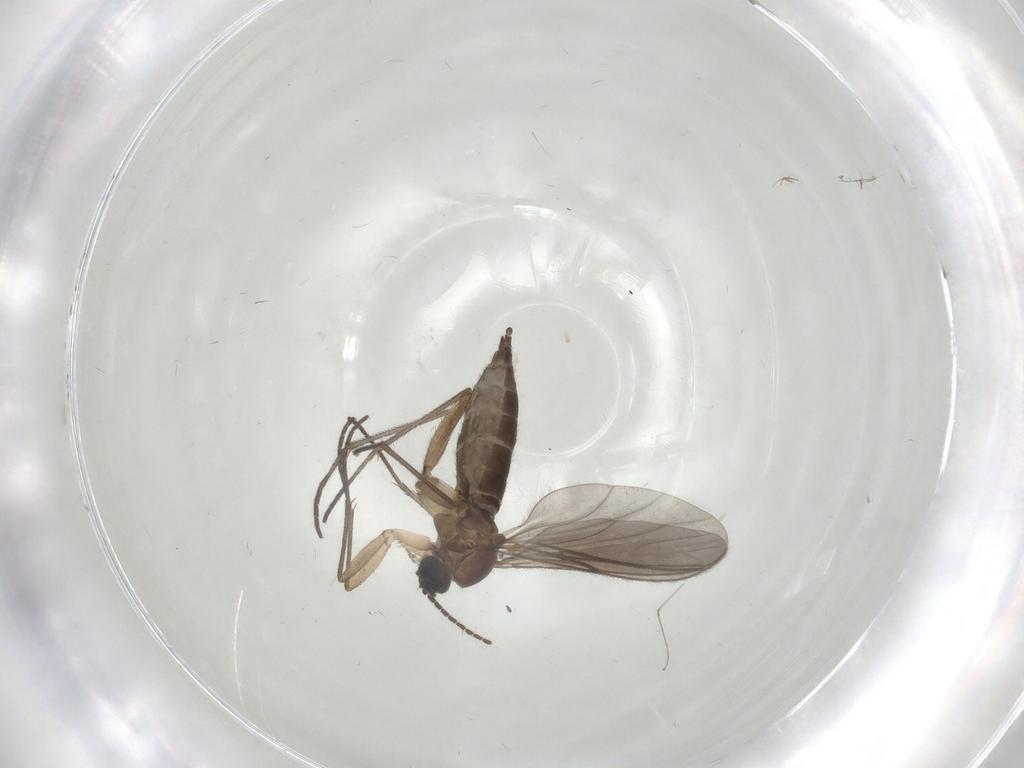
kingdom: Animalia
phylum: Arthropoda
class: Insecta
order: Diptera
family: Cecidomyiidae
